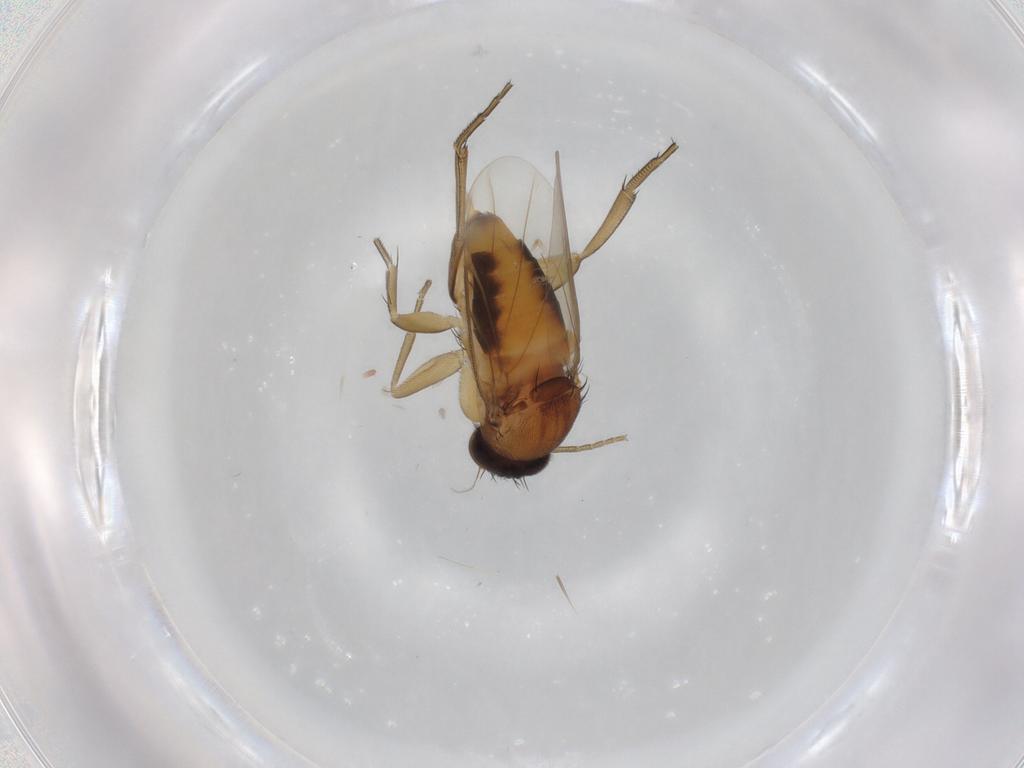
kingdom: Animalia
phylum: Arthropoda
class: Insecta
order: Diptera
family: Phoridae
